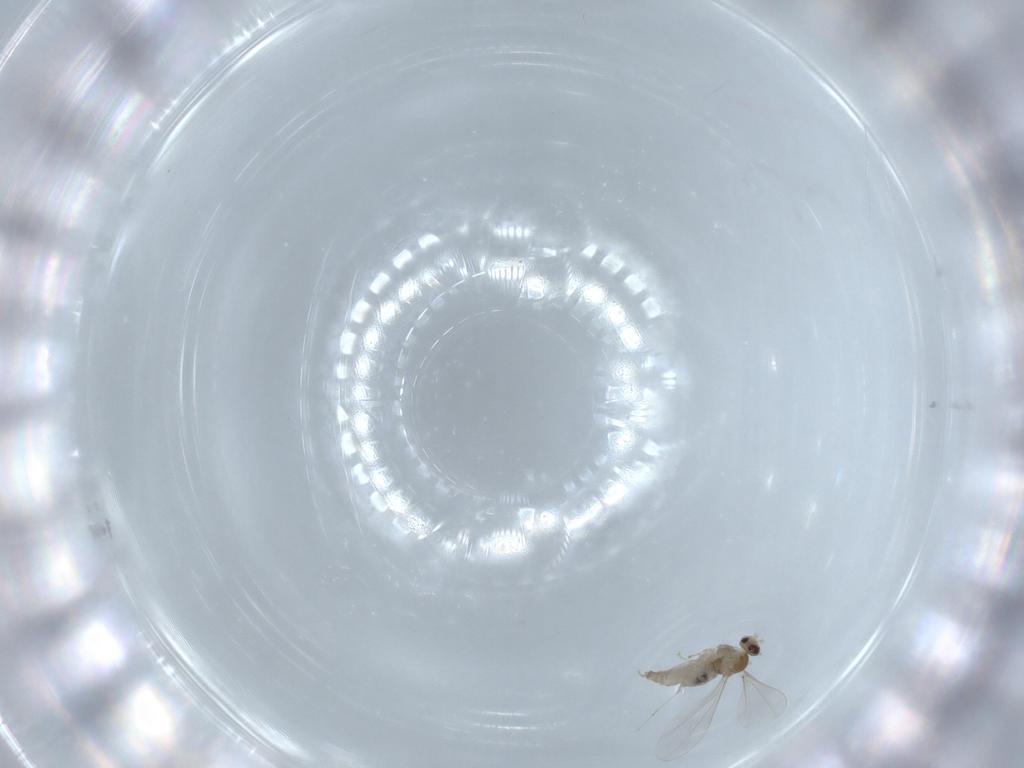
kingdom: Animalia
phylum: Arthropoda
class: Insecta
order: Diptera
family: Cecidomyiidae
